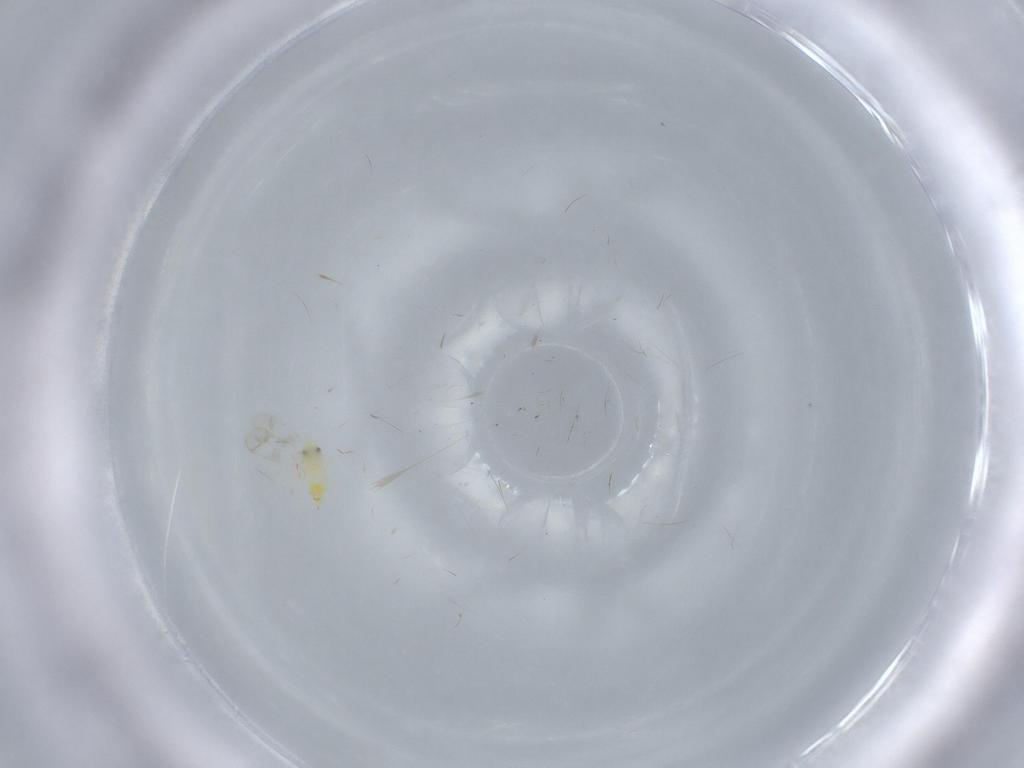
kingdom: Animalia
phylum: Arthropoda
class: Insecta
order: Hemiptera
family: Aleyrodidae
